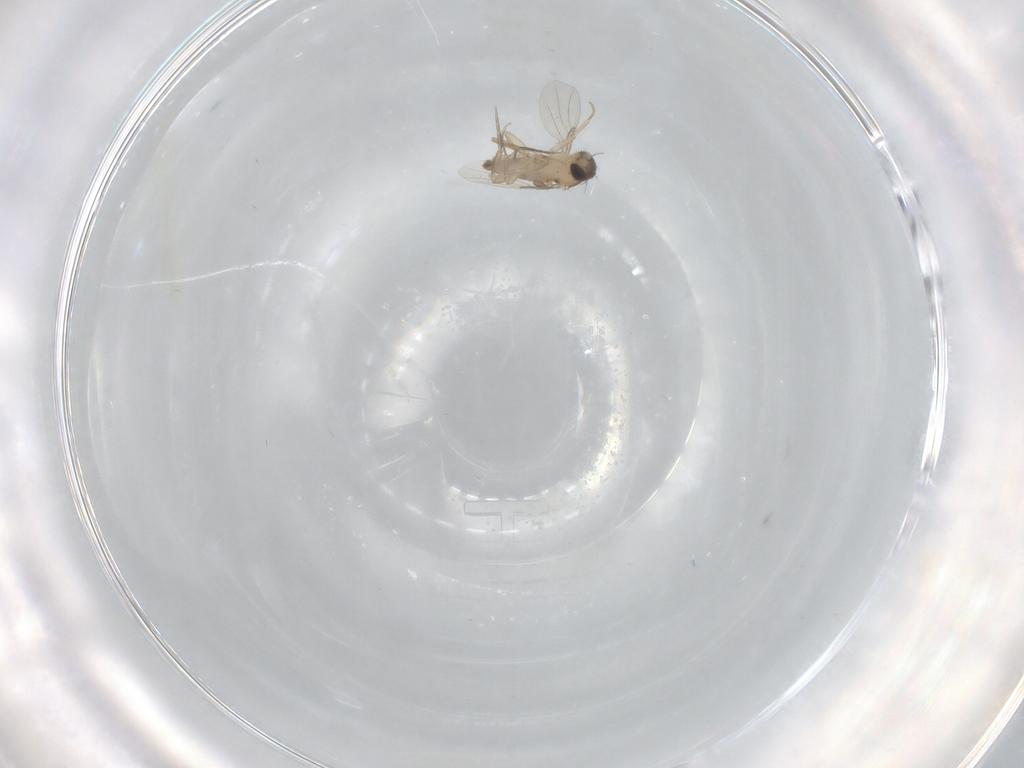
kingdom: Animalia
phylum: Arthropoda
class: Insecta
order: Diptera
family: Phoridae
